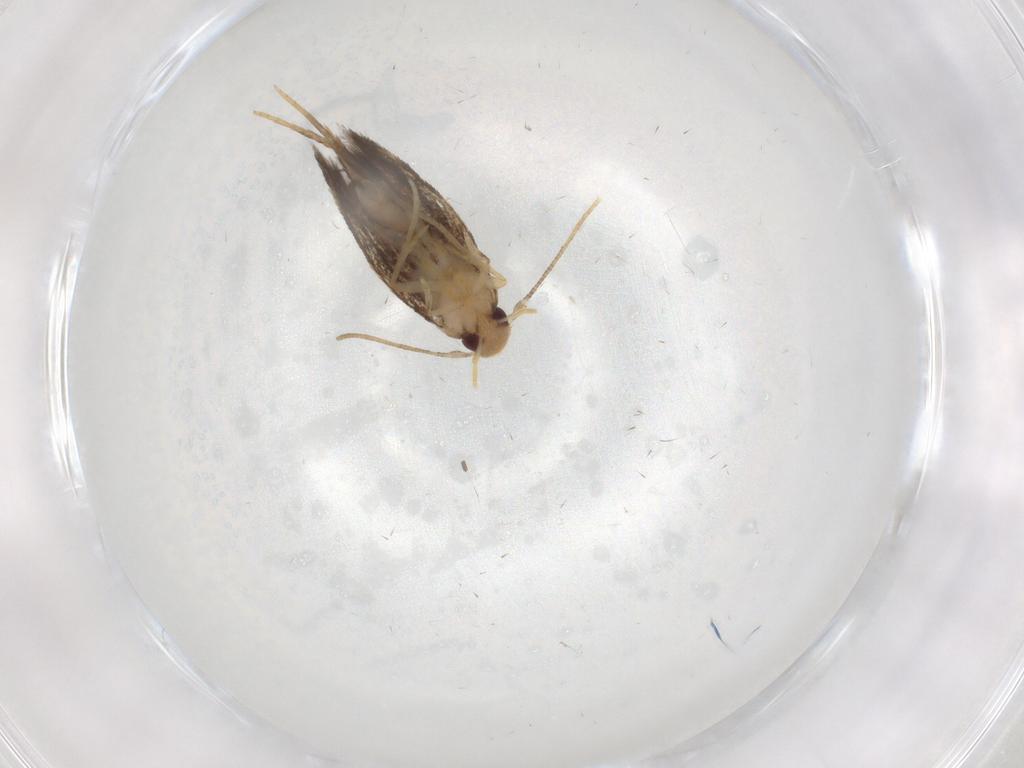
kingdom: Animalia
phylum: Arthropoda
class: Insecta
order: Lepidoptera
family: Gelechiidae
